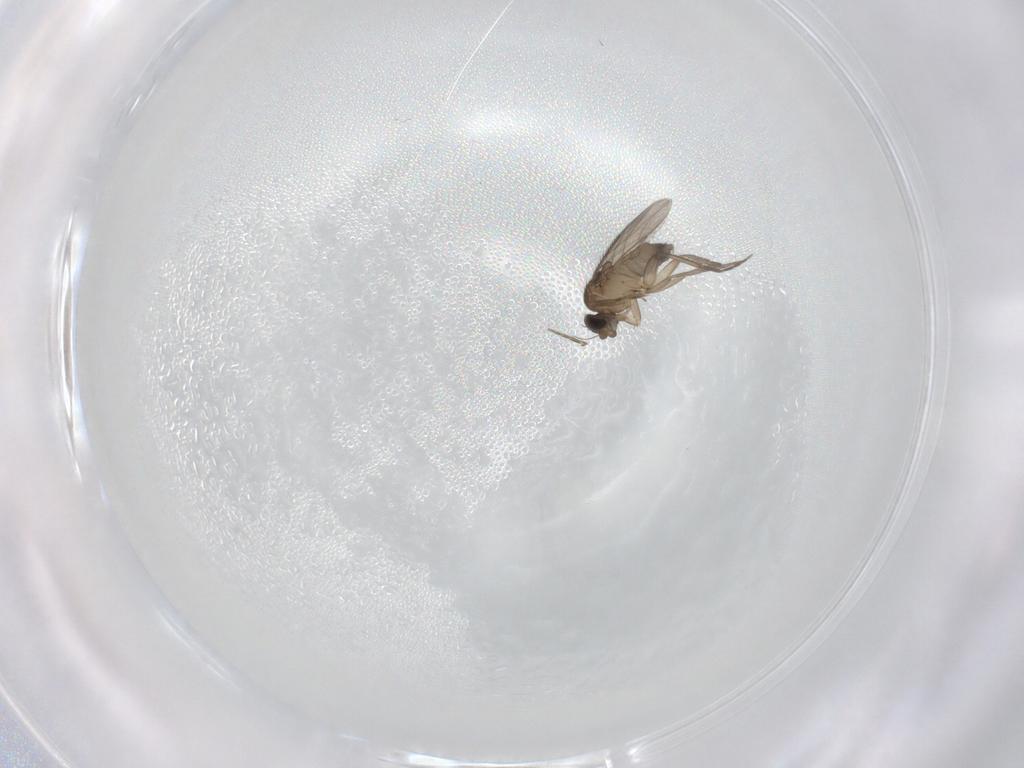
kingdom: Animalia
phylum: Arthropoda
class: Insecta
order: Diptera
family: Phoridae
